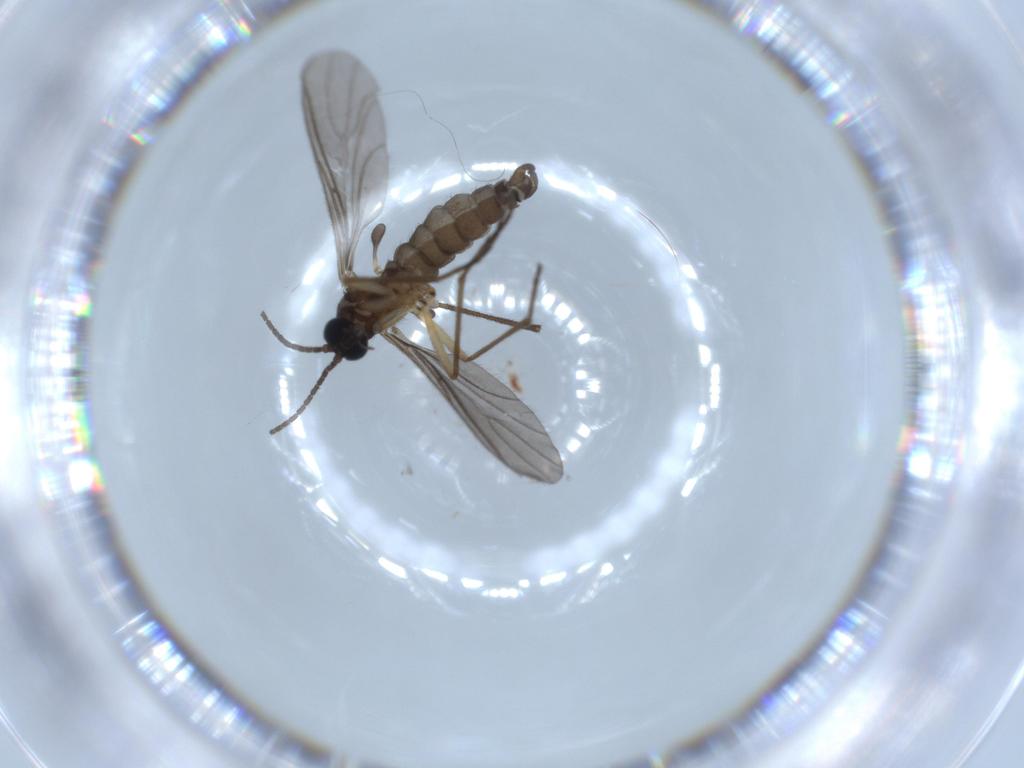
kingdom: Animalia
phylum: Arthropoda
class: Insecta
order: Diptera
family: Sciaridae
